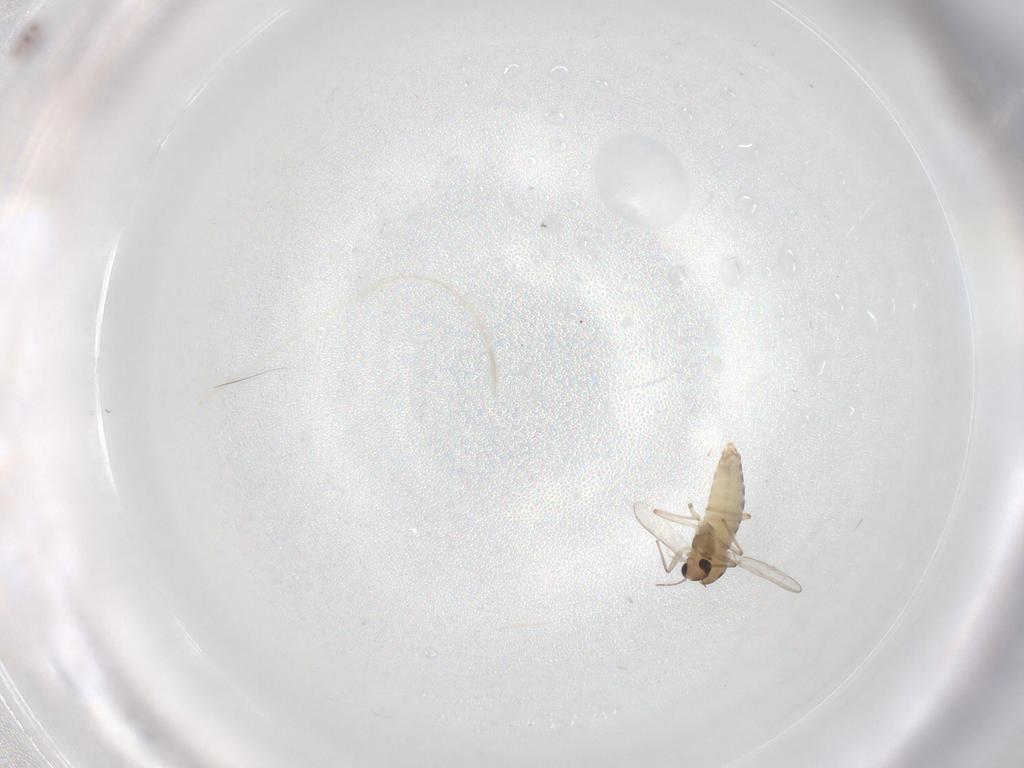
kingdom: Animalia
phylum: Arthropoda
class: Insecta
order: Diptera
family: Chironomidae
